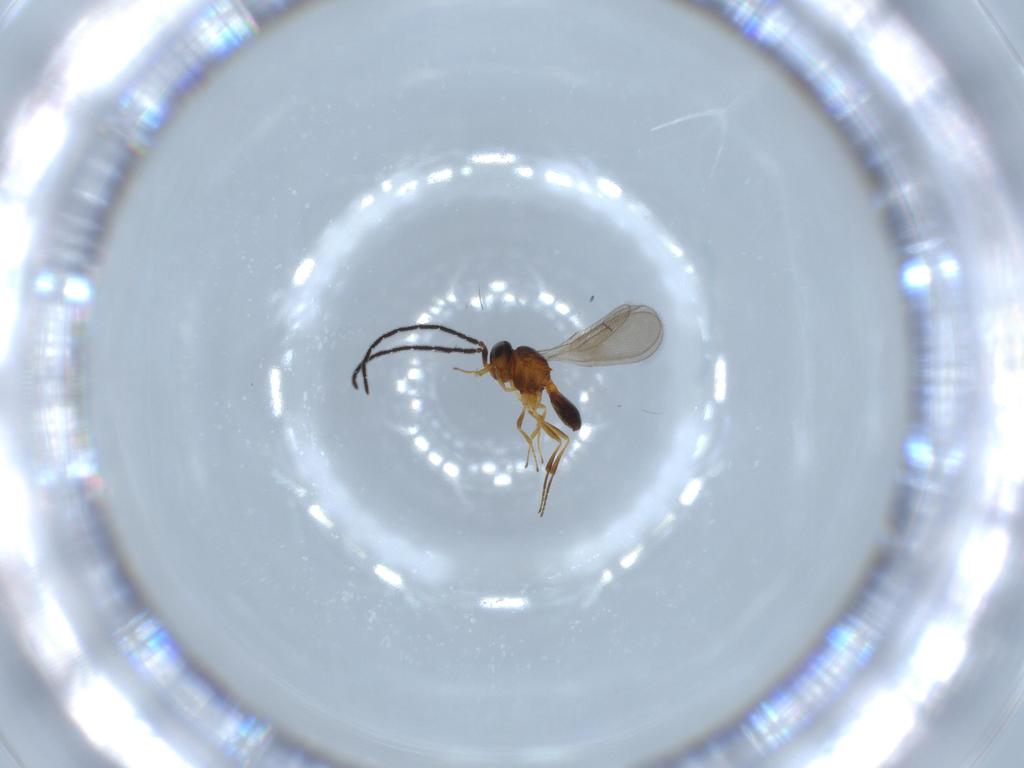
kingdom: Animalia
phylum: Arthropoda
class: Insecta
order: Hymenoptera
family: Scelionidae
